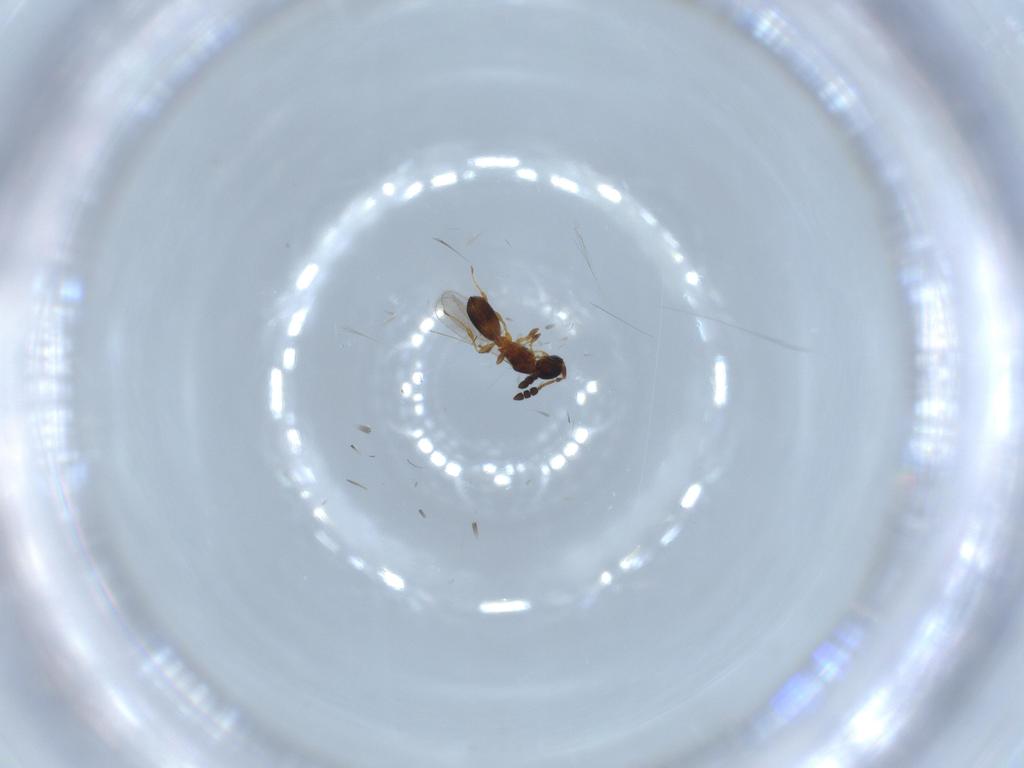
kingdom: Animalia
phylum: Arthropoda
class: Insecta
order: Hymenoptera
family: Diapriidae
